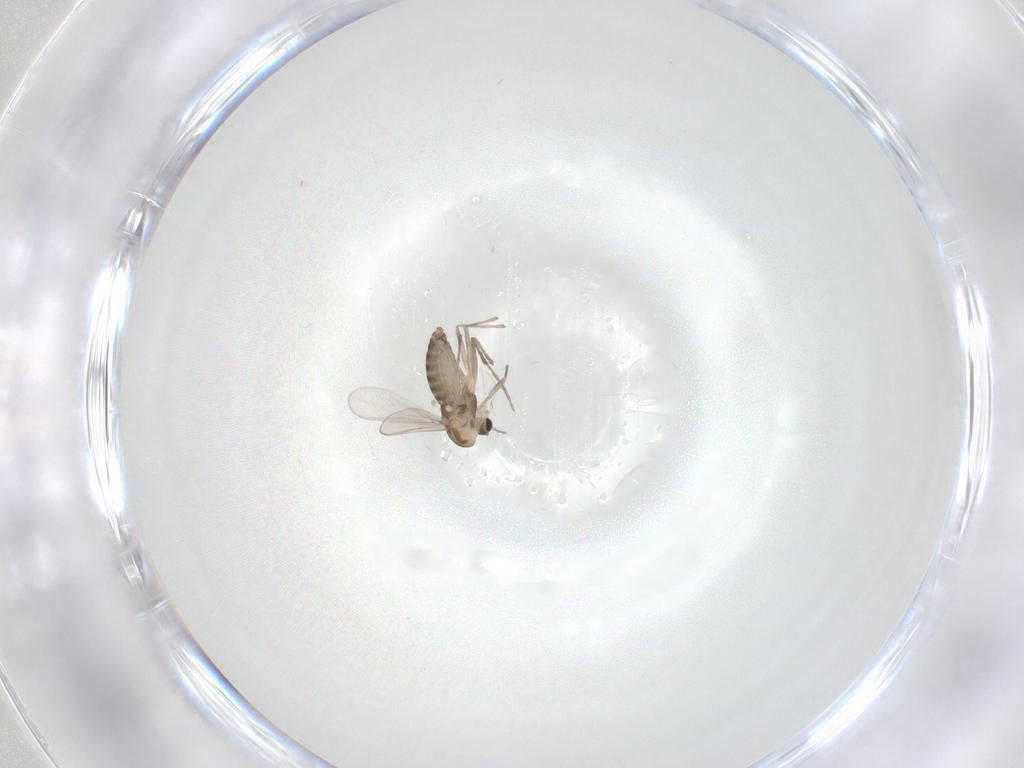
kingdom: Animalia
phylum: Arthropoda
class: Insecta
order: Diptera
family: Chironomidae
